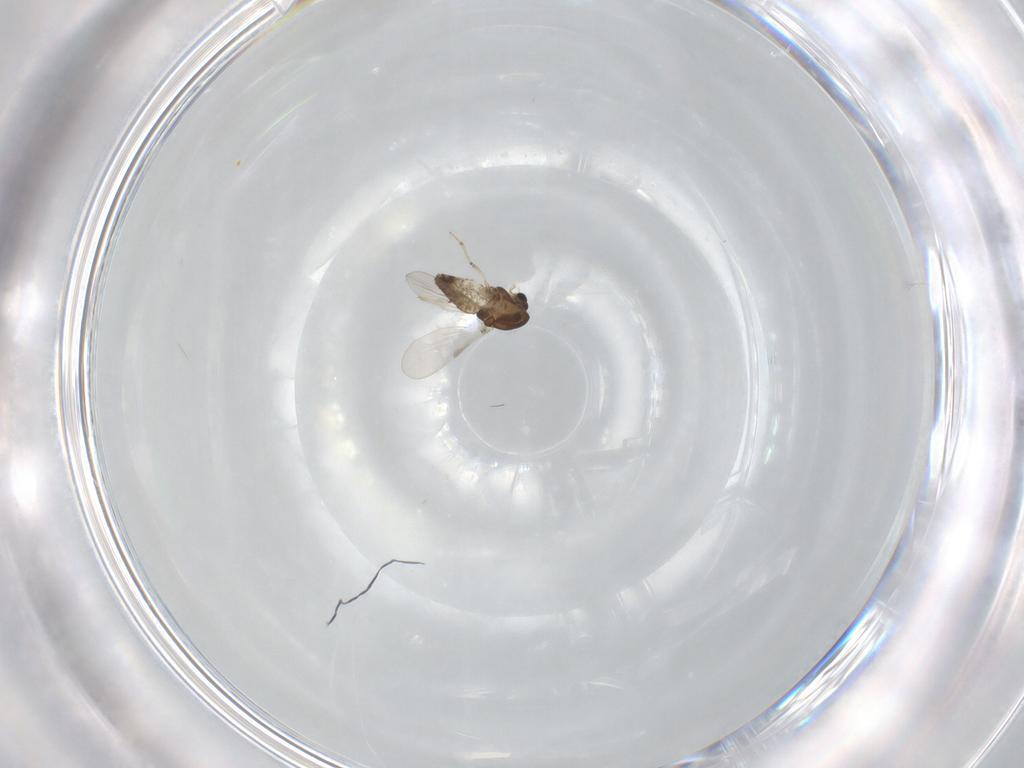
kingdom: Animalia
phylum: Arthropoda
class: Insecta
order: Diptera
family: Chironomidae
